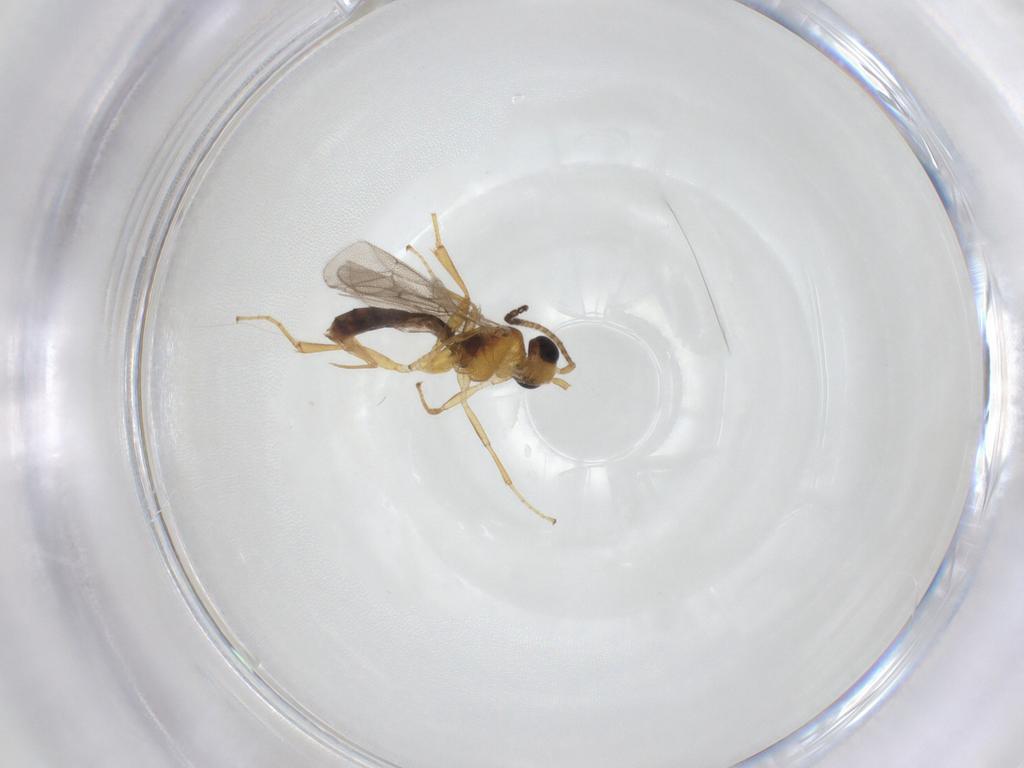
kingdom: Animalia
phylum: Arthropoda
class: Insecta
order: Hymenoptera
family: Ichneumonidae
